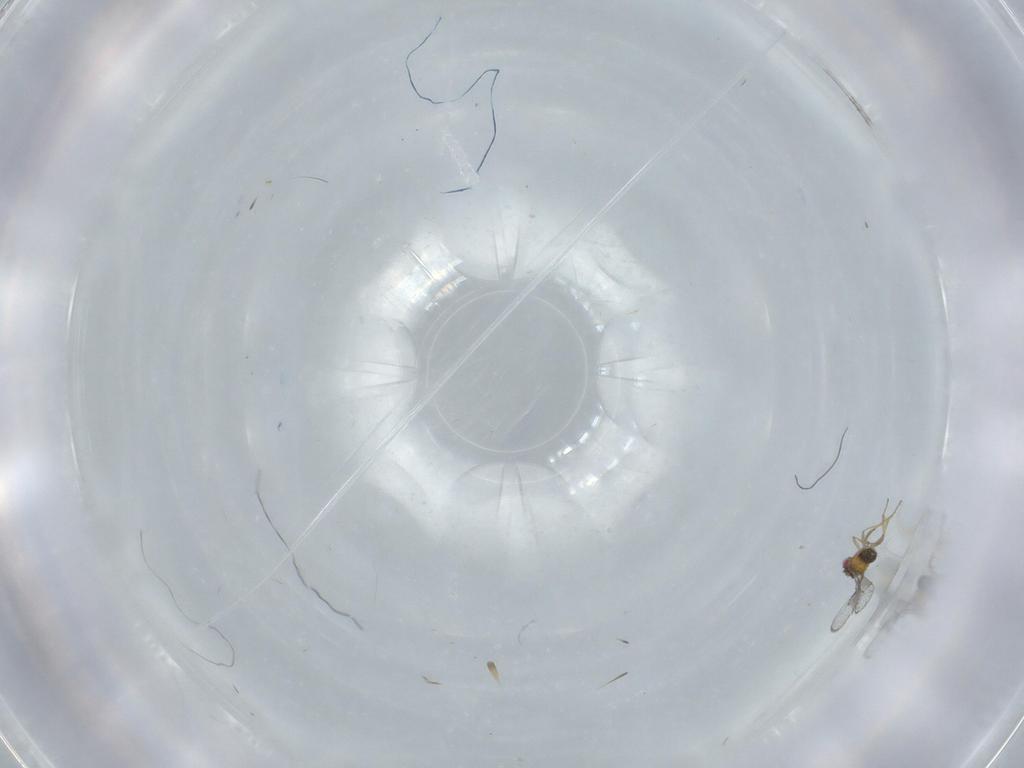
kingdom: Animalia
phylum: Arthropoda
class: Insecta
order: Hymenoptera
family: Trichogrammatidae
